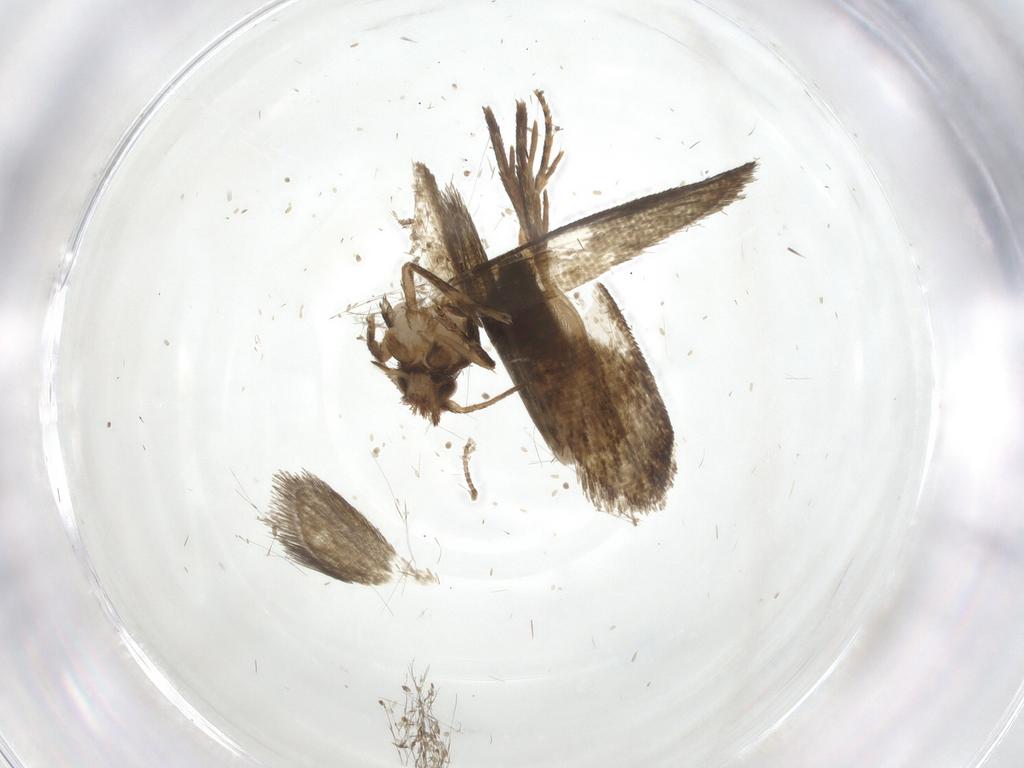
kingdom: Animalia
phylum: Arthropoda
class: Insecta
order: Lepidoptera
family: Crambidae
